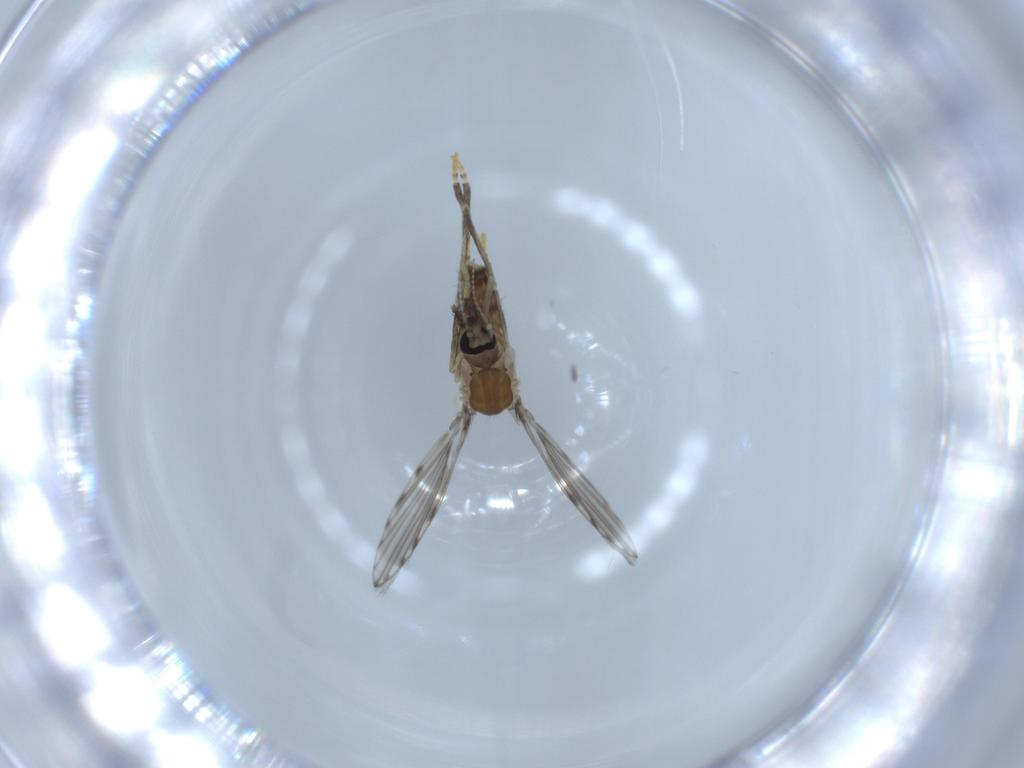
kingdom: Animalia
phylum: Arthropoda
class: Insecta
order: Diptera
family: Psychodidae
